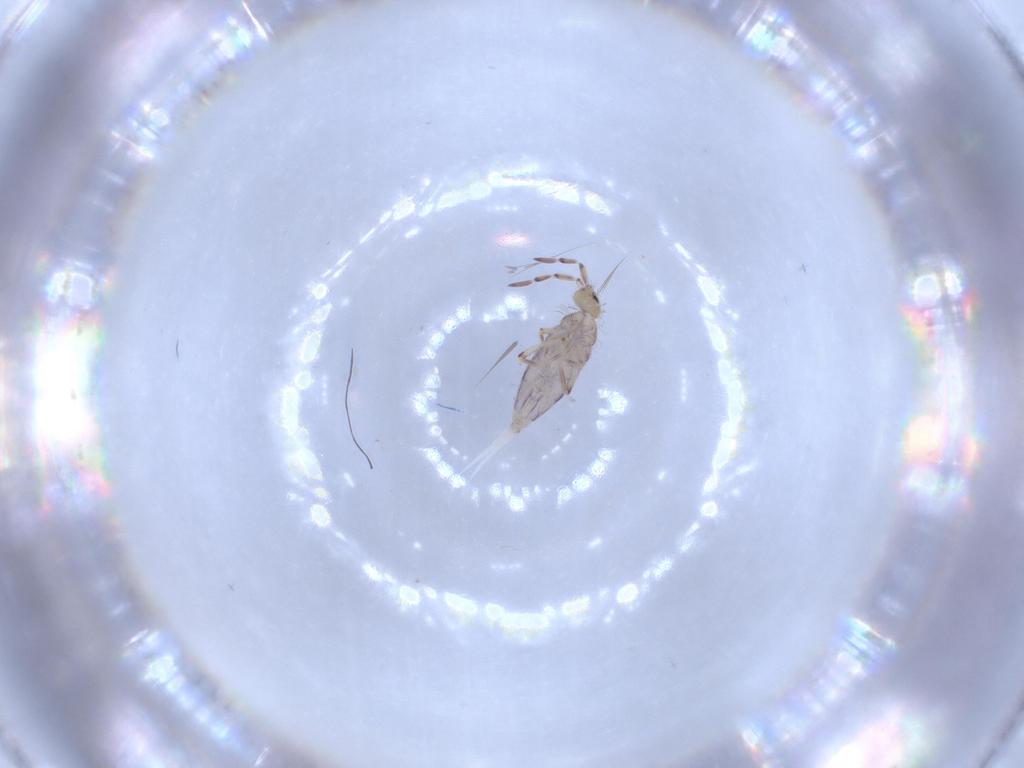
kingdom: Animalia
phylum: Arthropoda
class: Collembola
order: Entomobryomorpha
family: Entomobryidae
